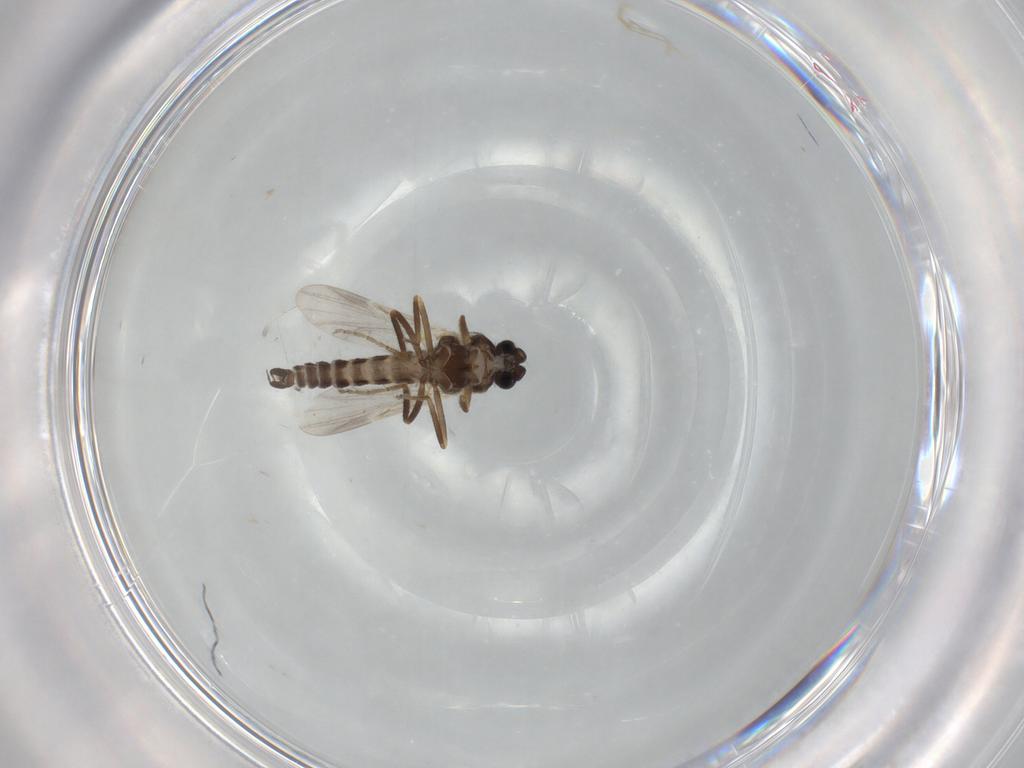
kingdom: Animalia
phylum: Arthropoda
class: Insecta
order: Diptera
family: Ceratopogonidae
